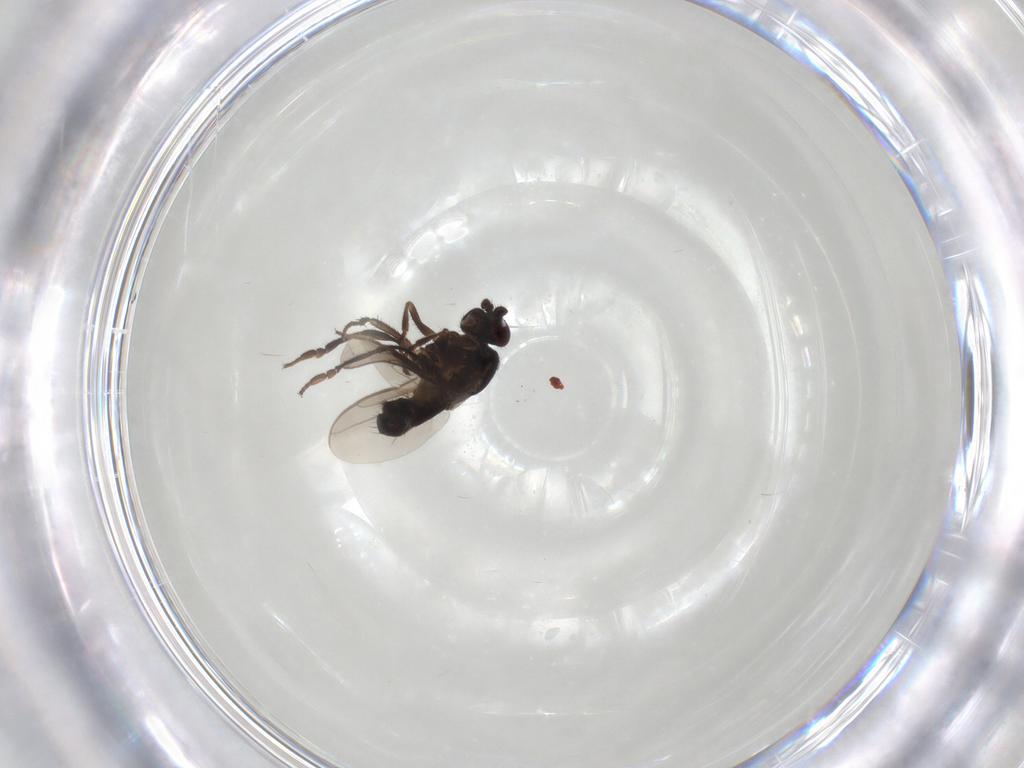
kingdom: Animalia
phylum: Arthropoda
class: Insecta
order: Diptera
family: Sphaeroceridae
